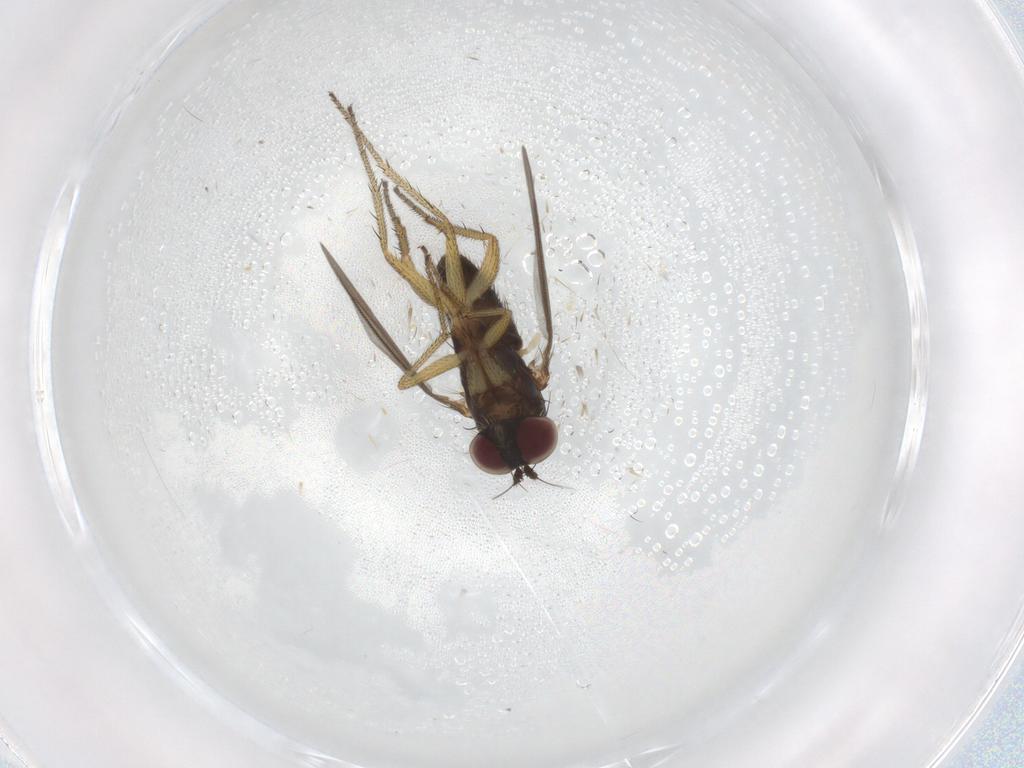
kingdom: Animalia
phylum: Arthropoda
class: Insecta
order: Diptera
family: Dolichopodidae
